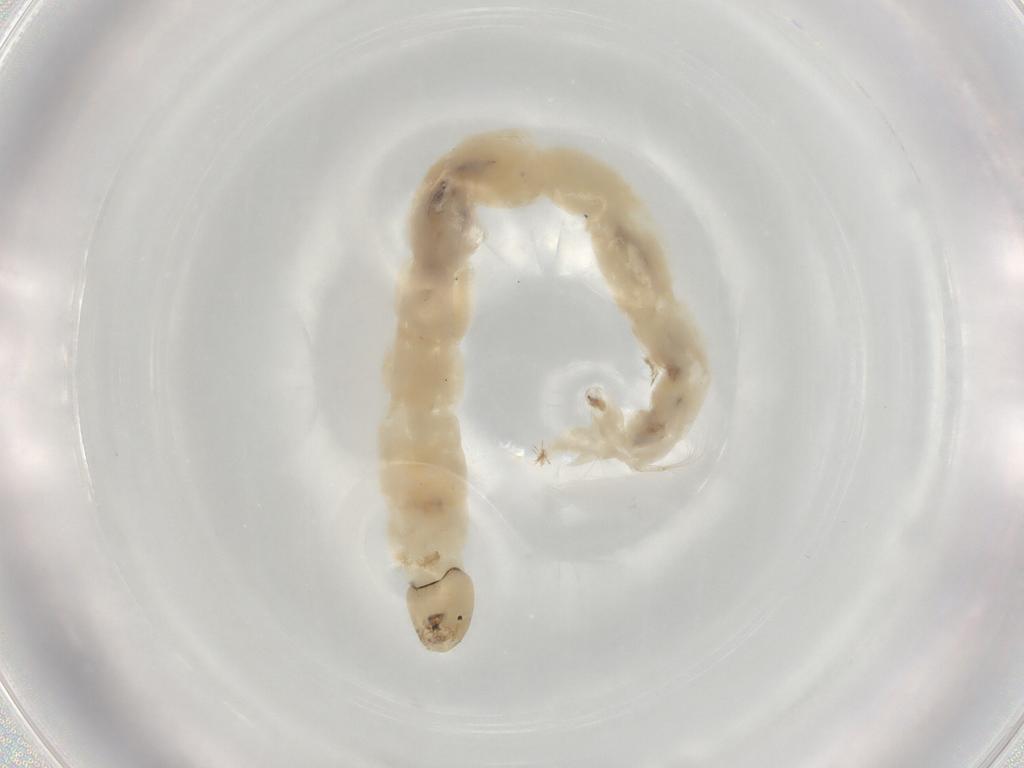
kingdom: Animalia
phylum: Arthropoda
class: Insecta
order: Diptera
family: Chironomidae
